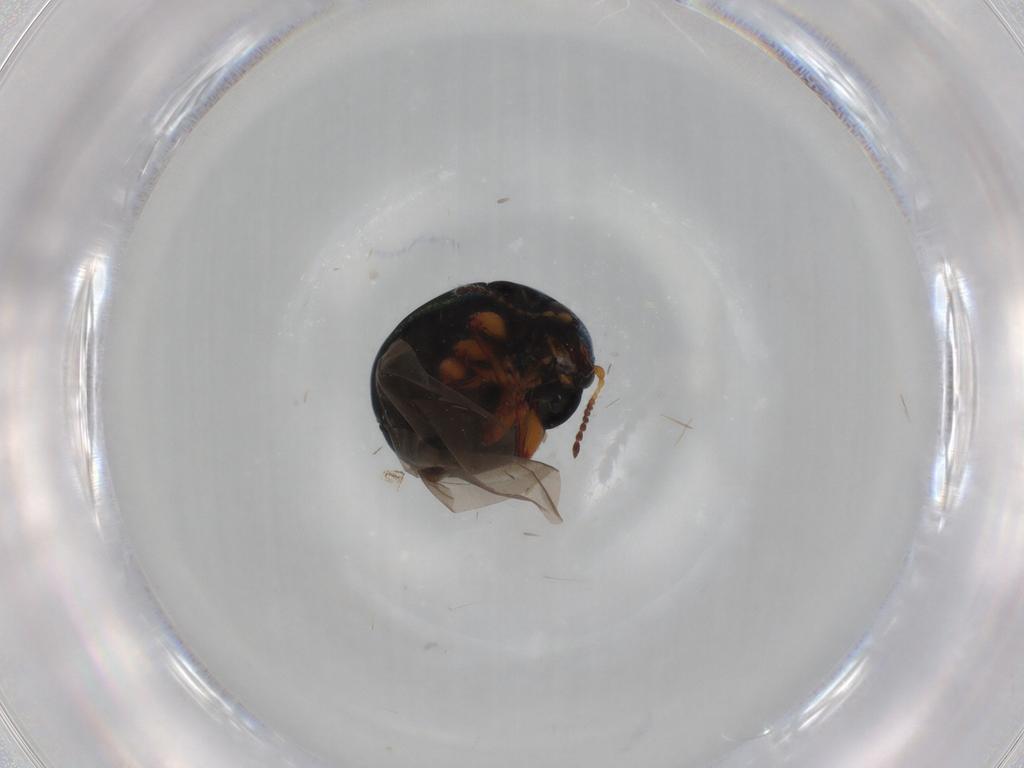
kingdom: Animalia
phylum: Arthropoda
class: Insecta
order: Coleoptera
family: Chrysomelidae
